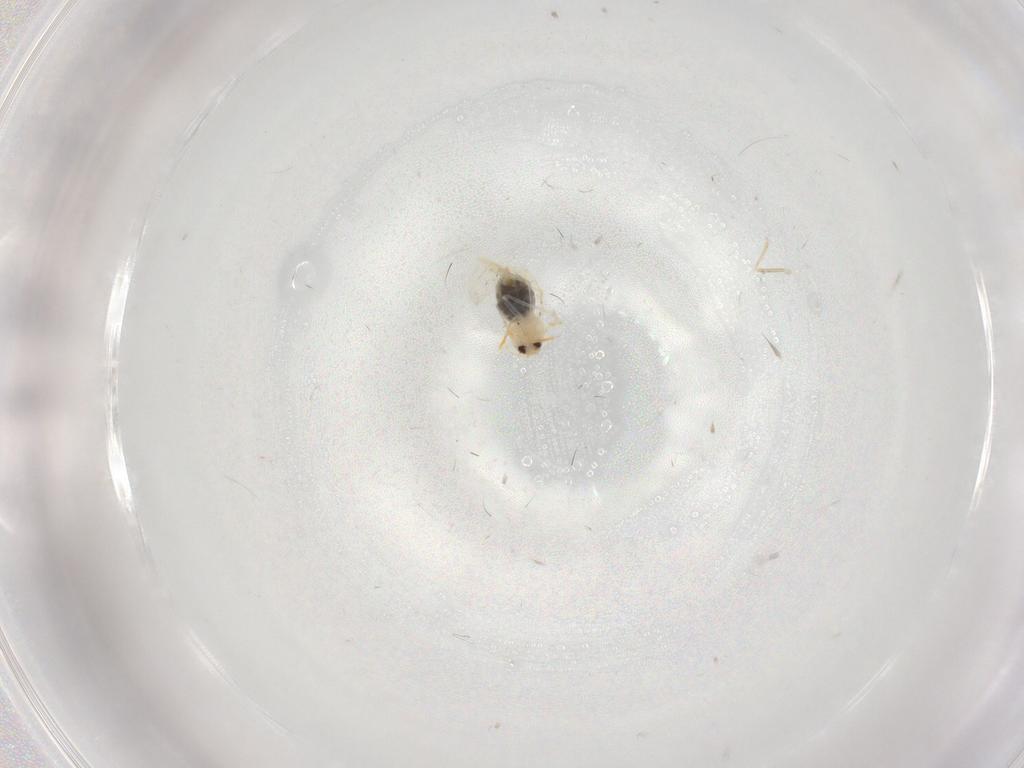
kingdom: Animalia
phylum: Arthropoda
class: Insecta
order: Hemiptera
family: Aleyrodidae
